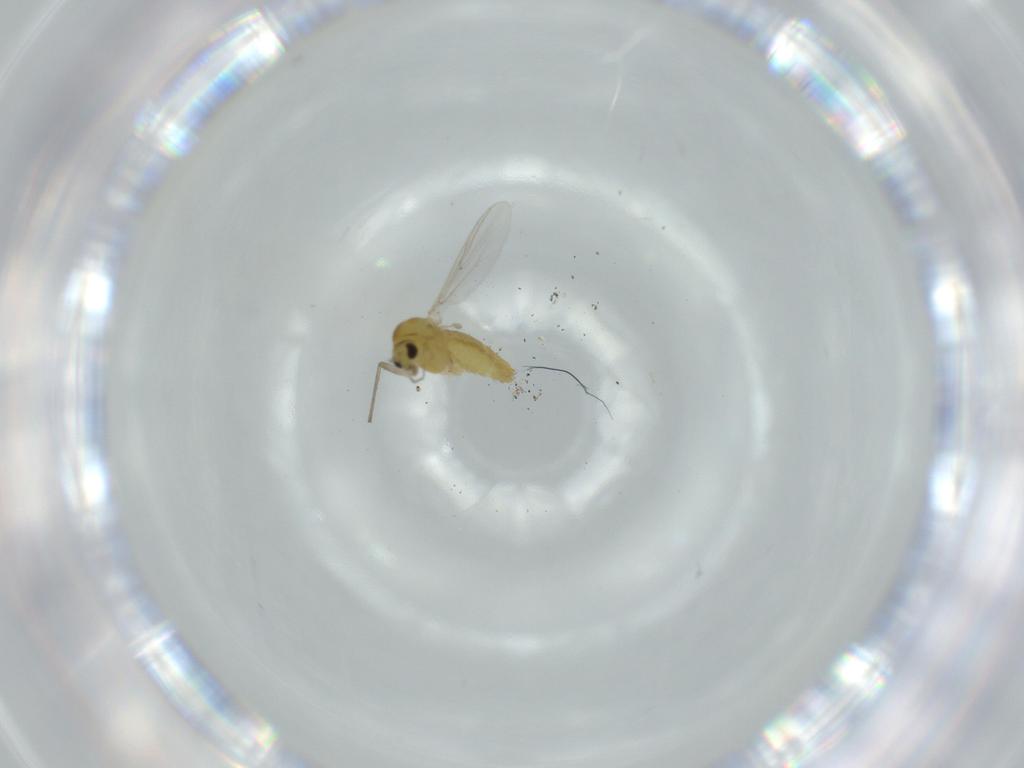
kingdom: Animalia
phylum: Arthropoda
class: Insecta
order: Diptera
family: Chironomidae
